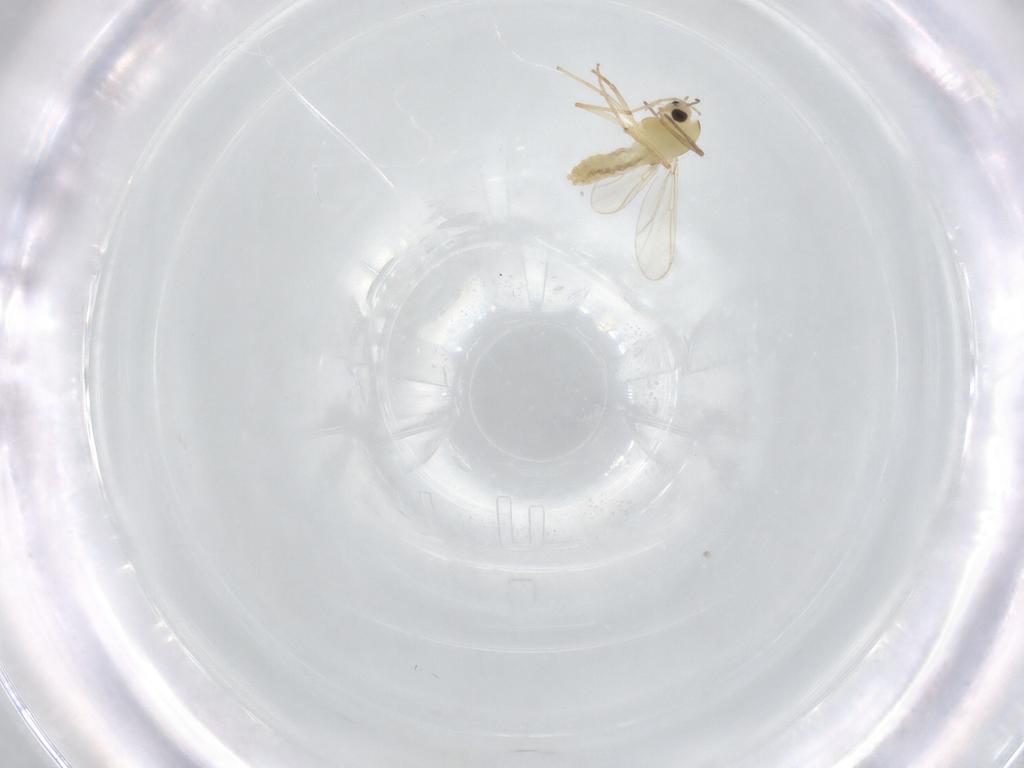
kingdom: Animalia
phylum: Arthropoda
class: Insecta
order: Diptera
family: Chironomidae
